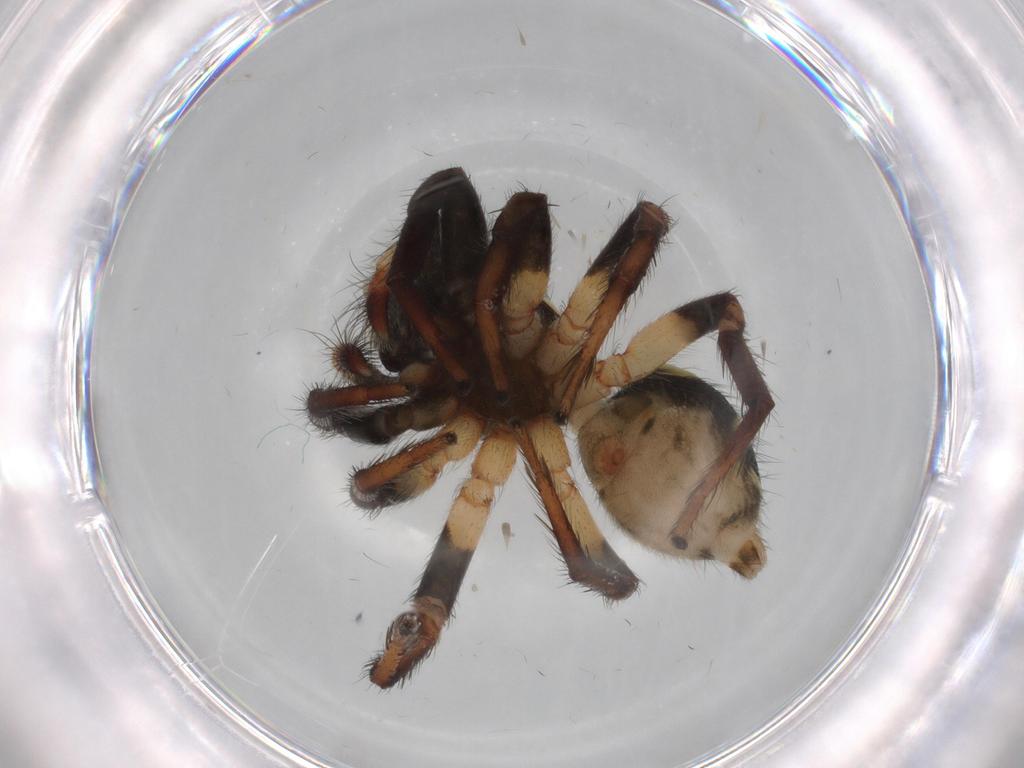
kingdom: Animalia
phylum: Arthropoda
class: Arachnida
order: Araneae
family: Salticidae
